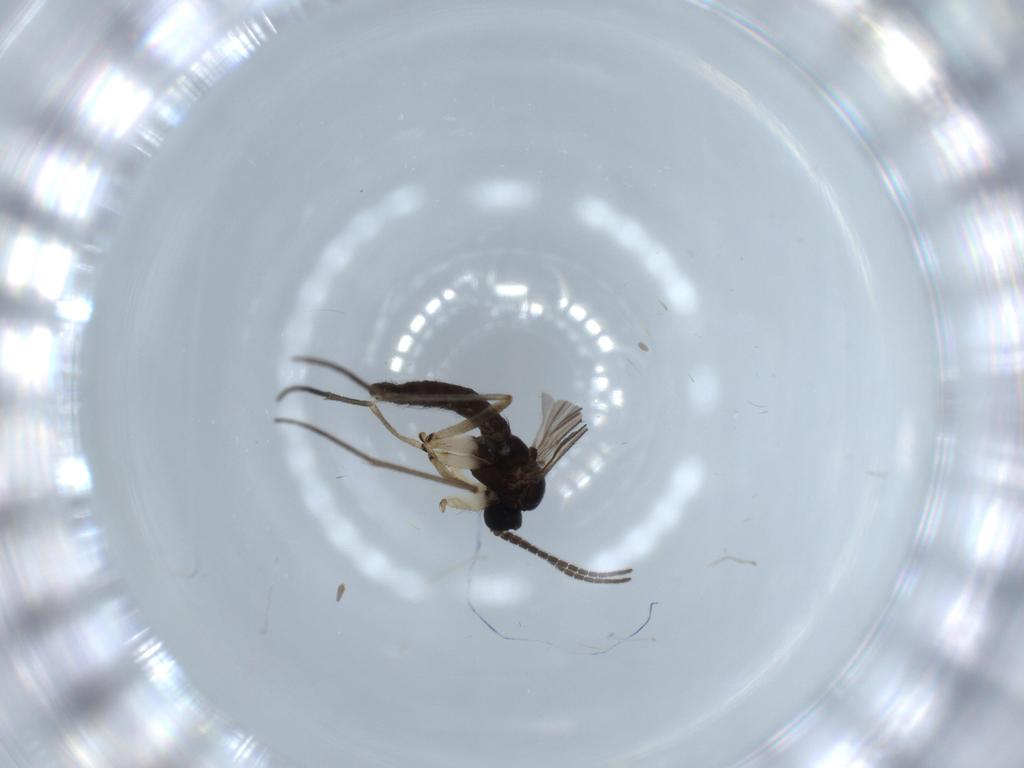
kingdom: Animalia
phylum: Arthropoda
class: Insecta
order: Diptera
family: Sciaridae
